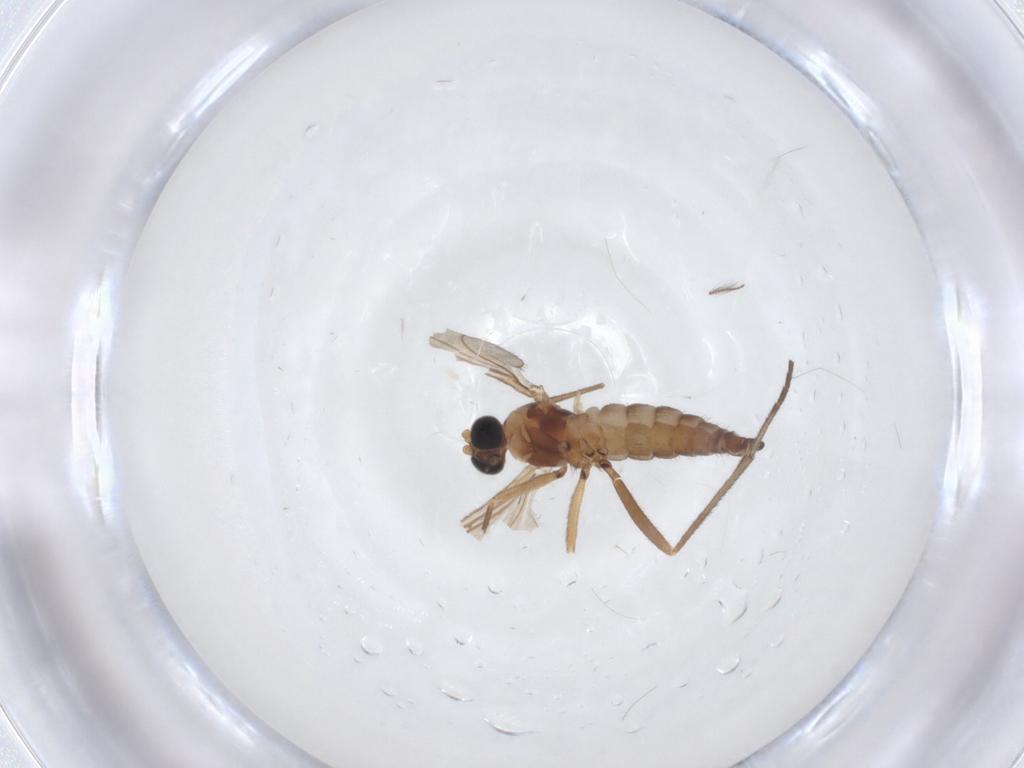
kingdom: Animalia
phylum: Arthropoda
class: Insecta
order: Diptera
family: Sciaridae
